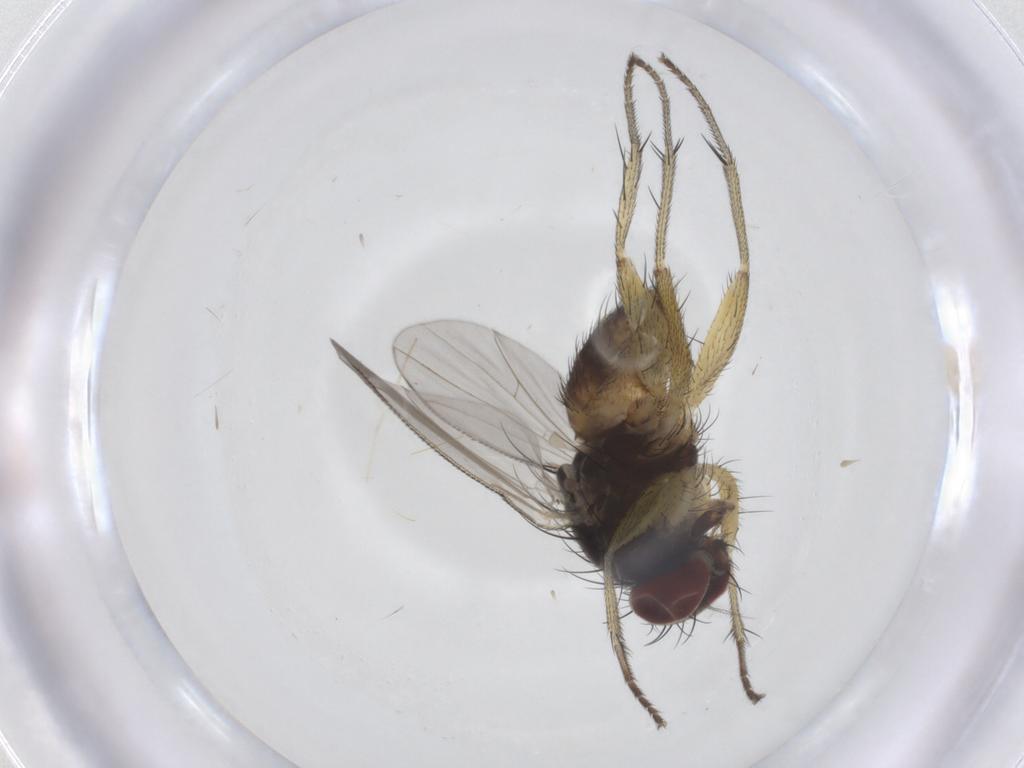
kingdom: Animalia
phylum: Arthropoda
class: Insecta
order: Diptera
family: Muscidae
